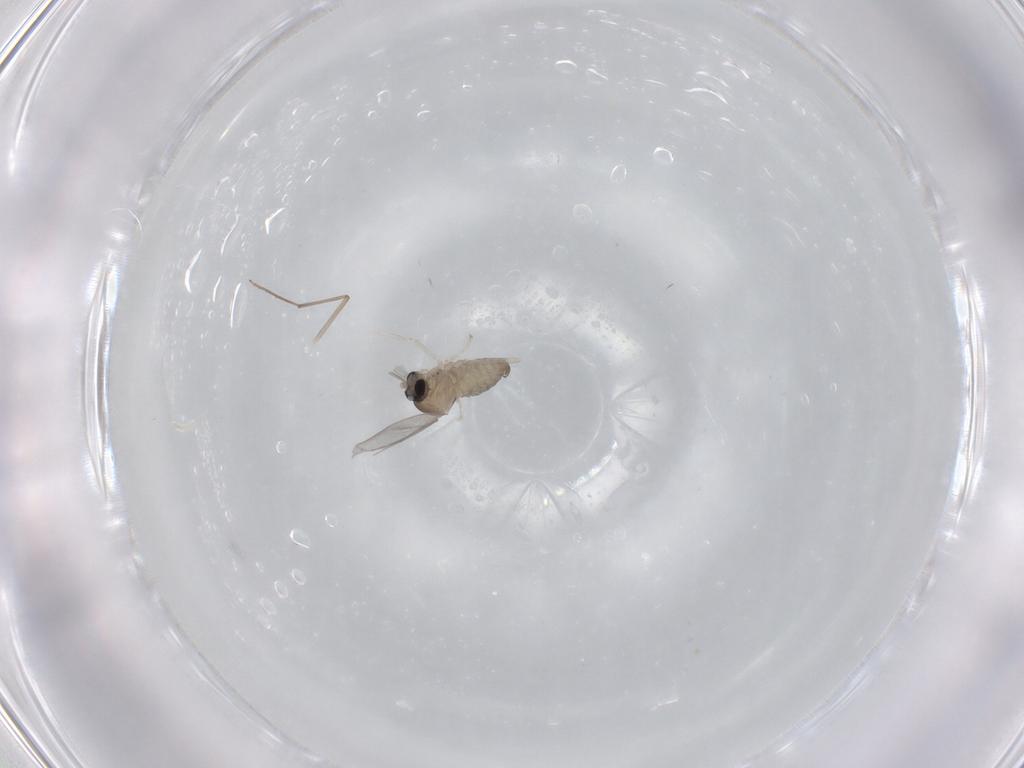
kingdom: Animalia
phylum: Arthropoda
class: Insecta
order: Diptera
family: Cecidomyiidae
